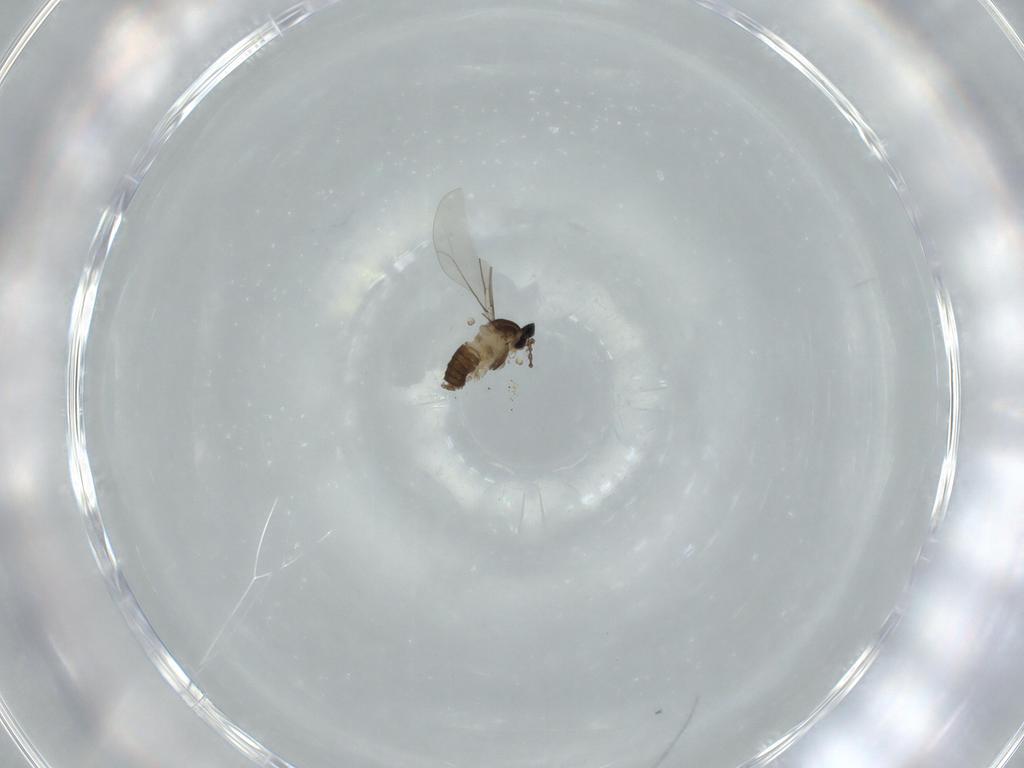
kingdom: Animalia
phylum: Arthropoda
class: Insecta
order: Diptera
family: Cecidomyiidae
